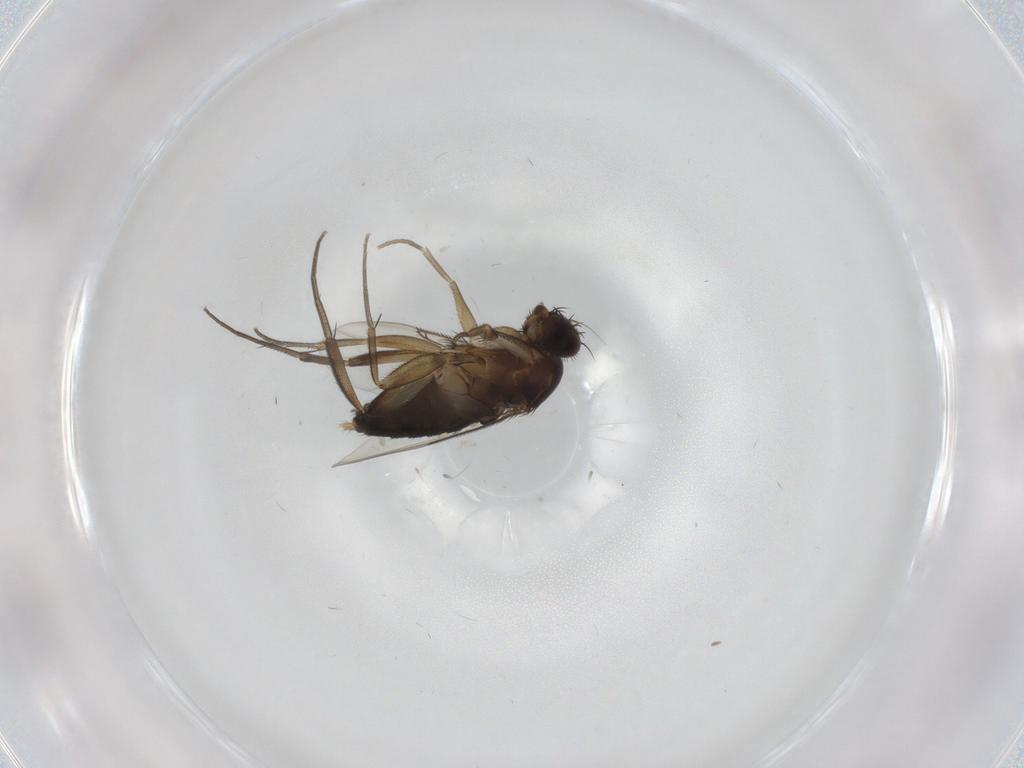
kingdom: Animalia
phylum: Arthropoda
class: Insecta
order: Diptera
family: Phoridae
